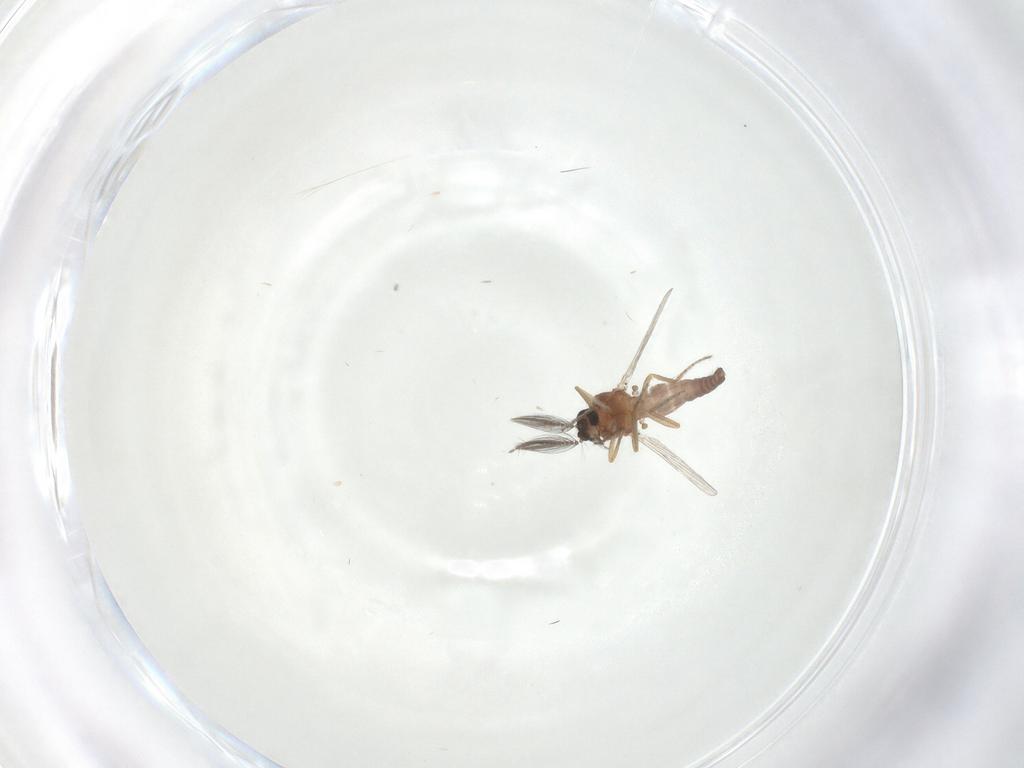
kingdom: Animalia
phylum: Arthropoda
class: Insecta
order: Diptera
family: Ceratopogonidae
